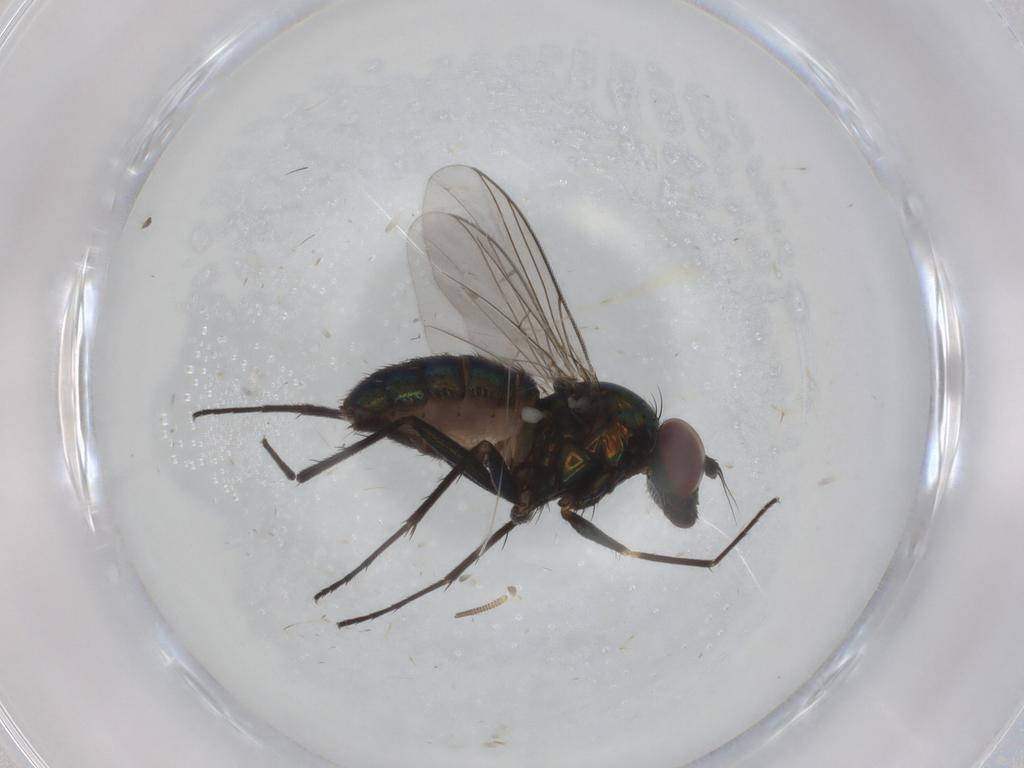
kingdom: Animalia
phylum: Arthropoda
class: Insecta
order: Diptera
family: Dolichopodidae
